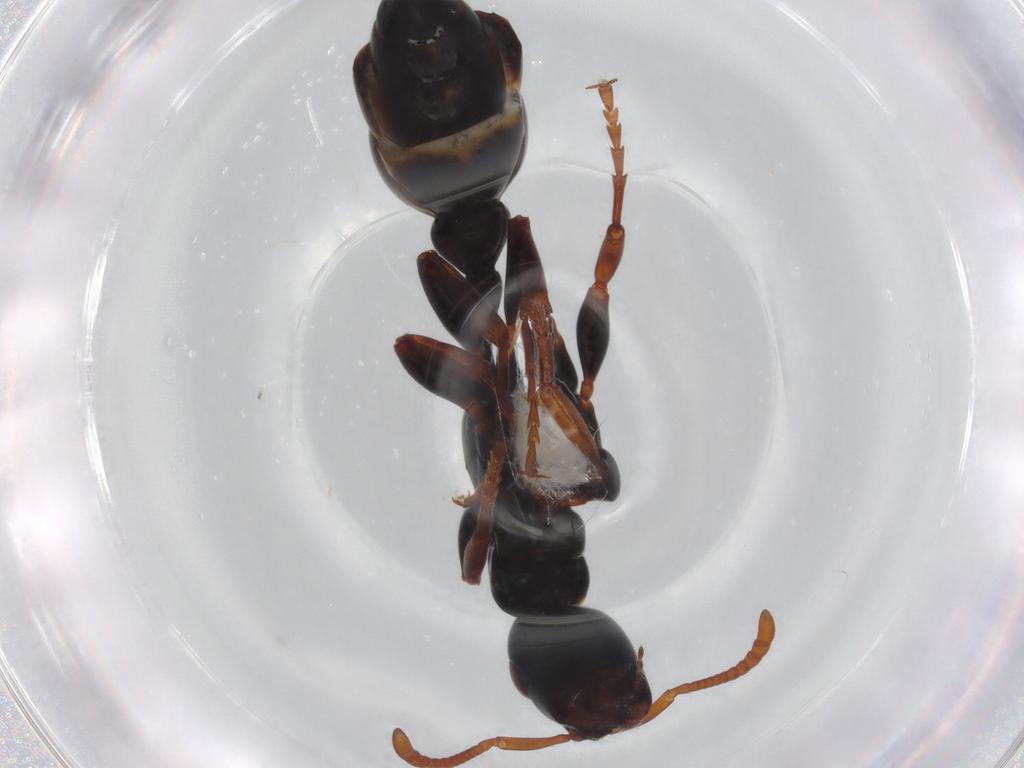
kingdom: Animalia
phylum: Arthropoda
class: Insecta
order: Hymenoptera
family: Formicidae
